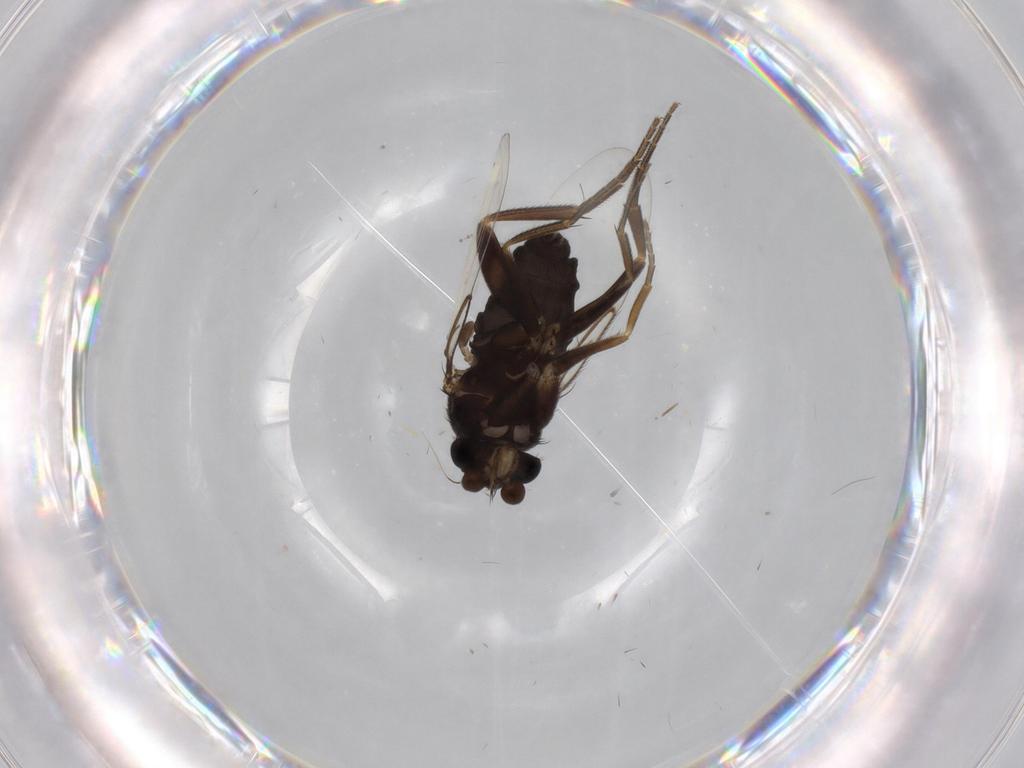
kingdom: Animalia
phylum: Arthropoda
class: Insecta
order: Diptera
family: Phoridae
